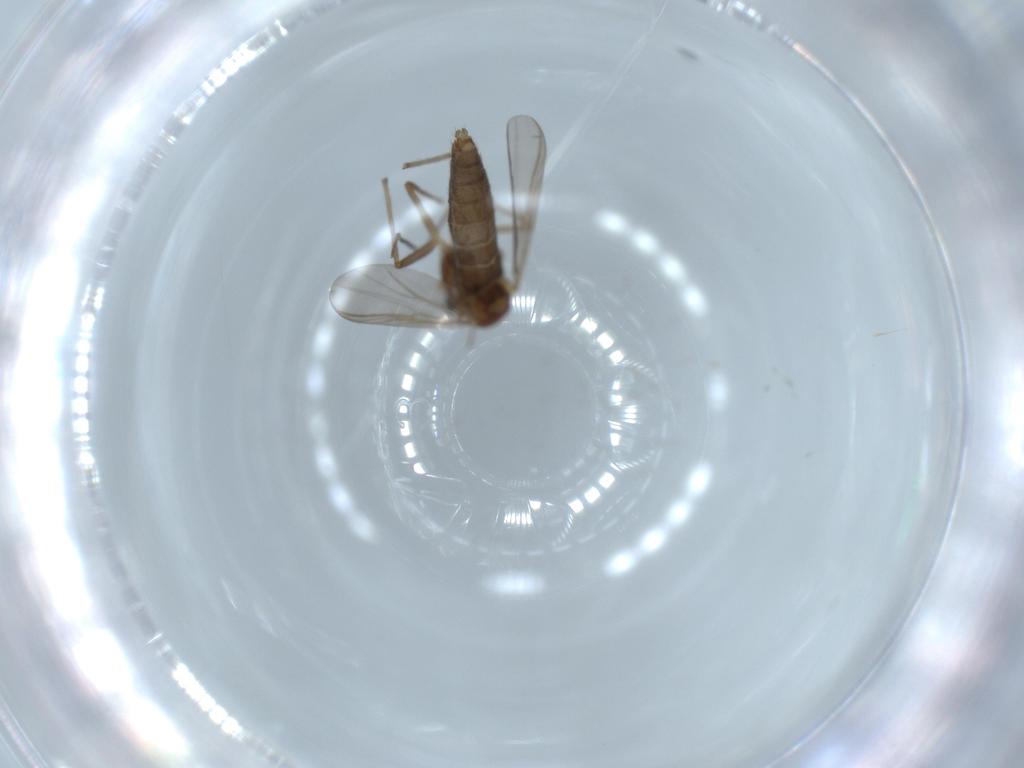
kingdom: Animalia
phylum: Arthropoda
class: Insecta
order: Diptera
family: Chironomidae
